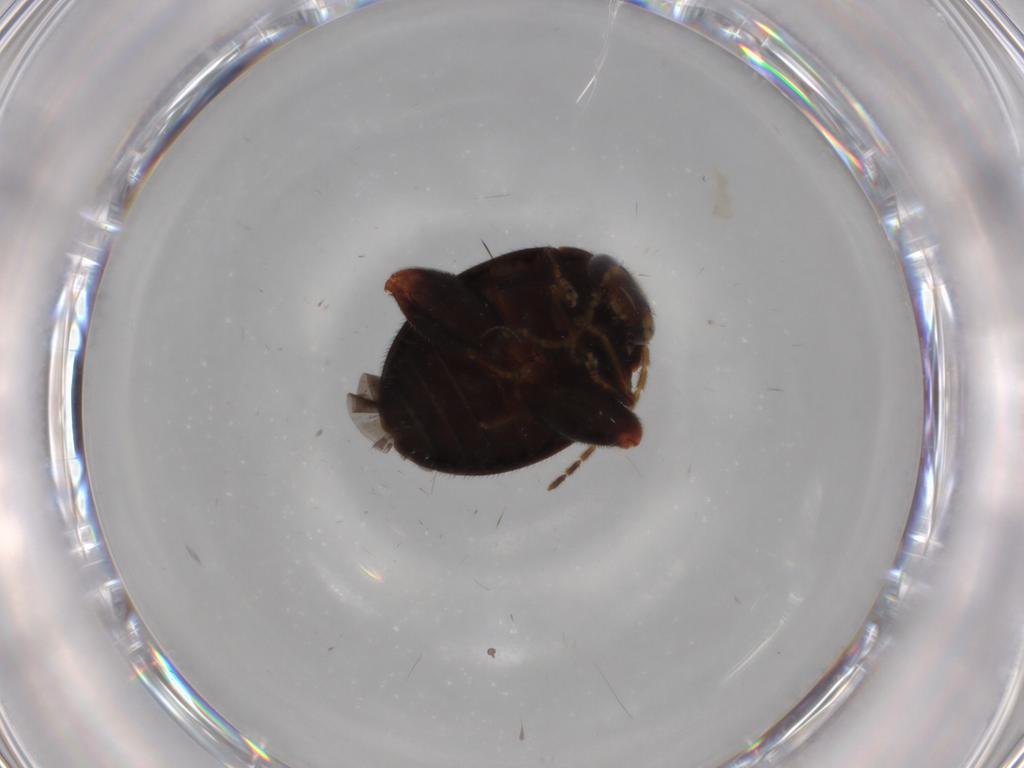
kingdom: Animalia
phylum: Arthropoda
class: Insecta
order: Coleoptera
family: Scirtidae
